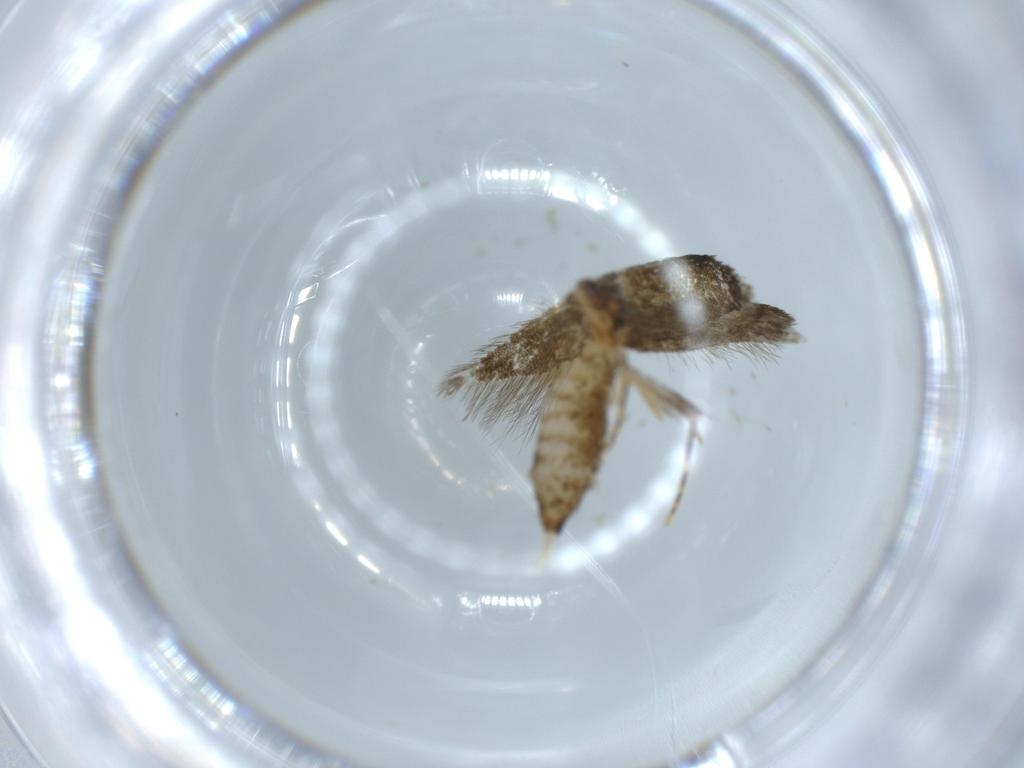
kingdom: Animalia
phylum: Arthropoda
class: Insecta
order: Lepidoptera
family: Tineidae
